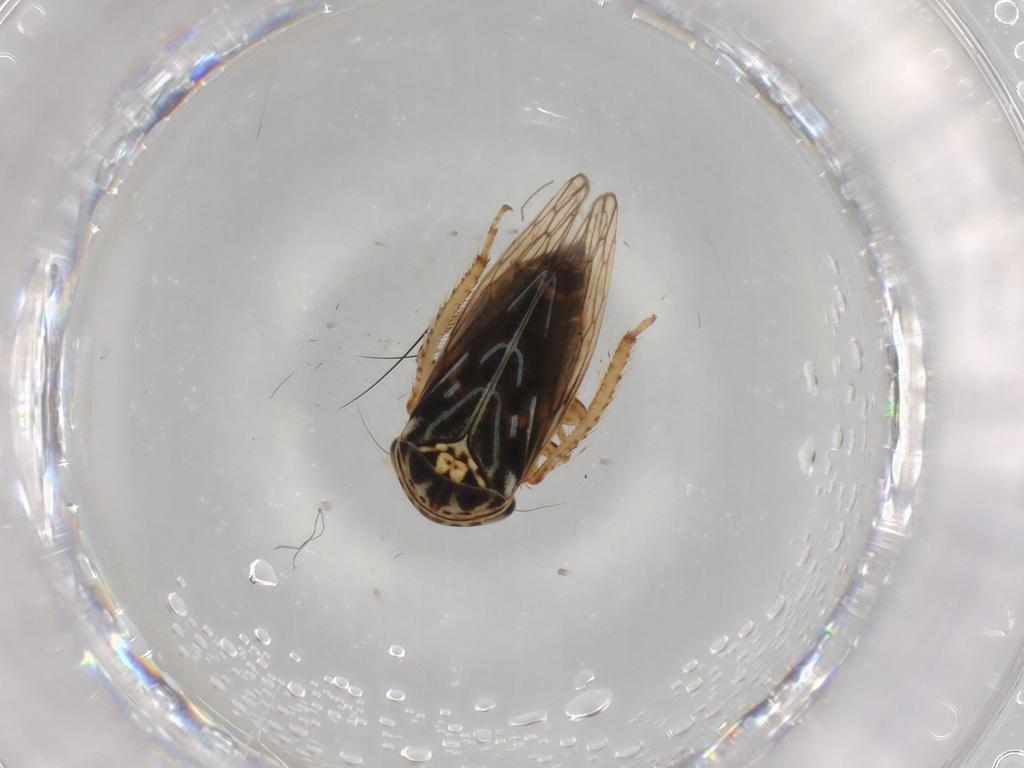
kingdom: Animalia
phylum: Arthropoda
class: Insecta
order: Hemiptera
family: Cicadellidae
